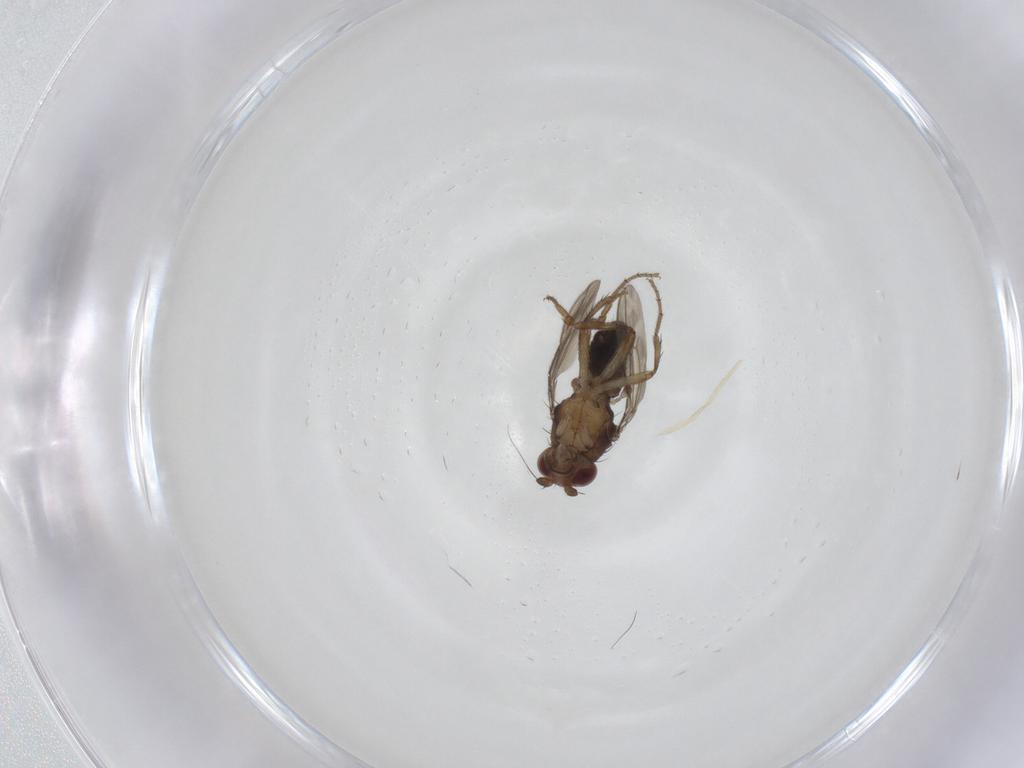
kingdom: Animalia
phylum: Arthropoda
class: Insecta
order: Diptera
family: Sphaeroceridae
